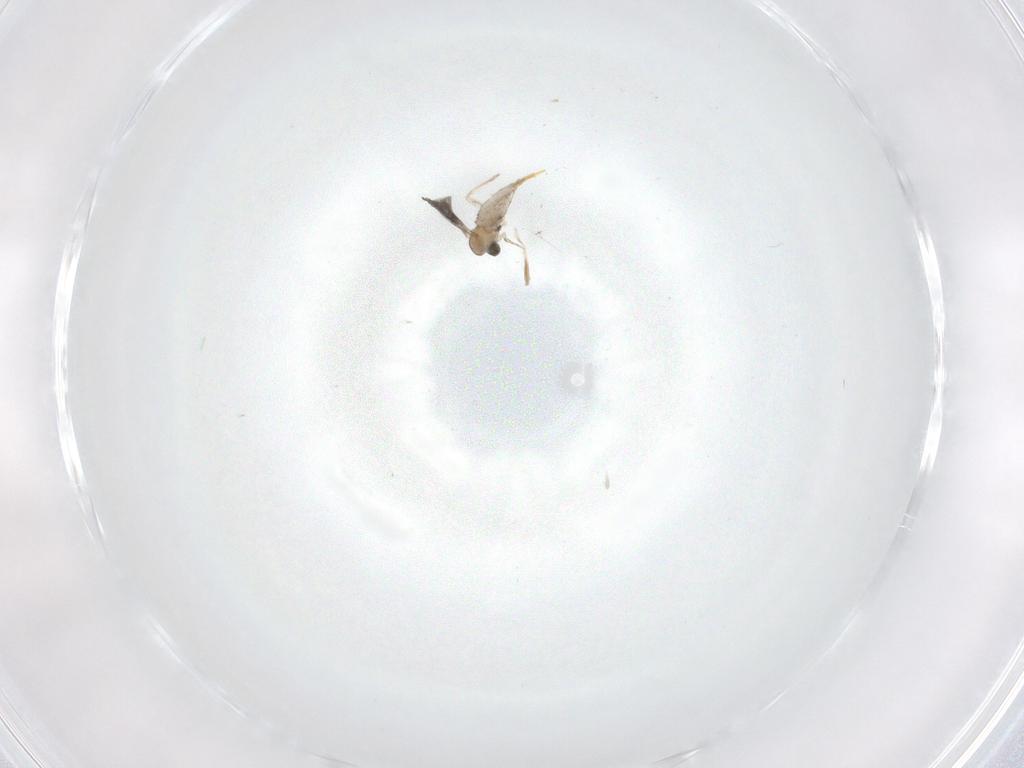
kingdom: Animalia
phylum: Arthropoda
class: Insecta
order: Diptera
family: Cecidomyiidae
